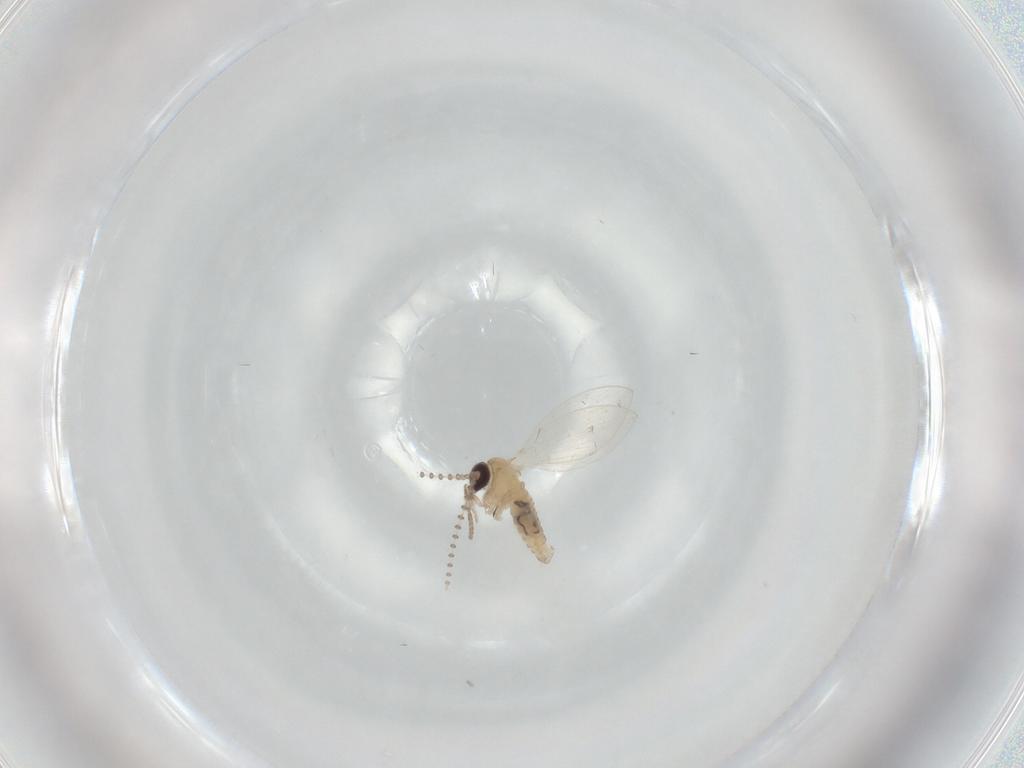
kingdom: Animalia
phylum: Arthropoda
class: Insecta
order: Diptera
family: Psychodidae
